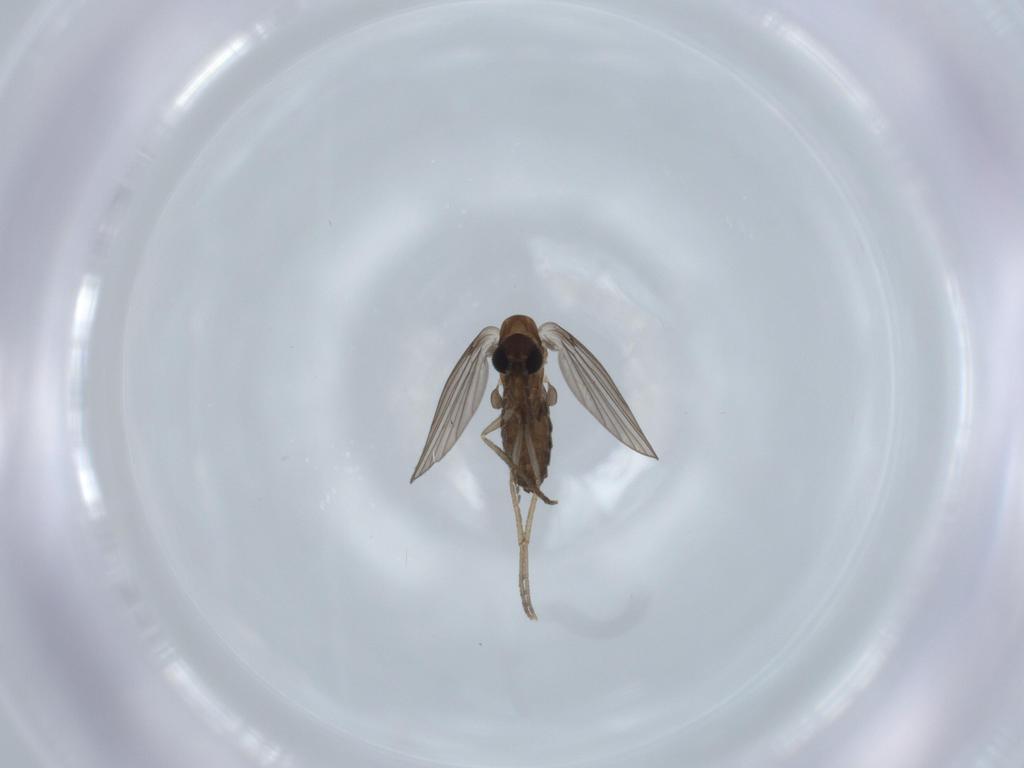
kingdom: Animalia
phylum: Arthropoda
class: Insecta
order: Diptera
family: Psychodidae
